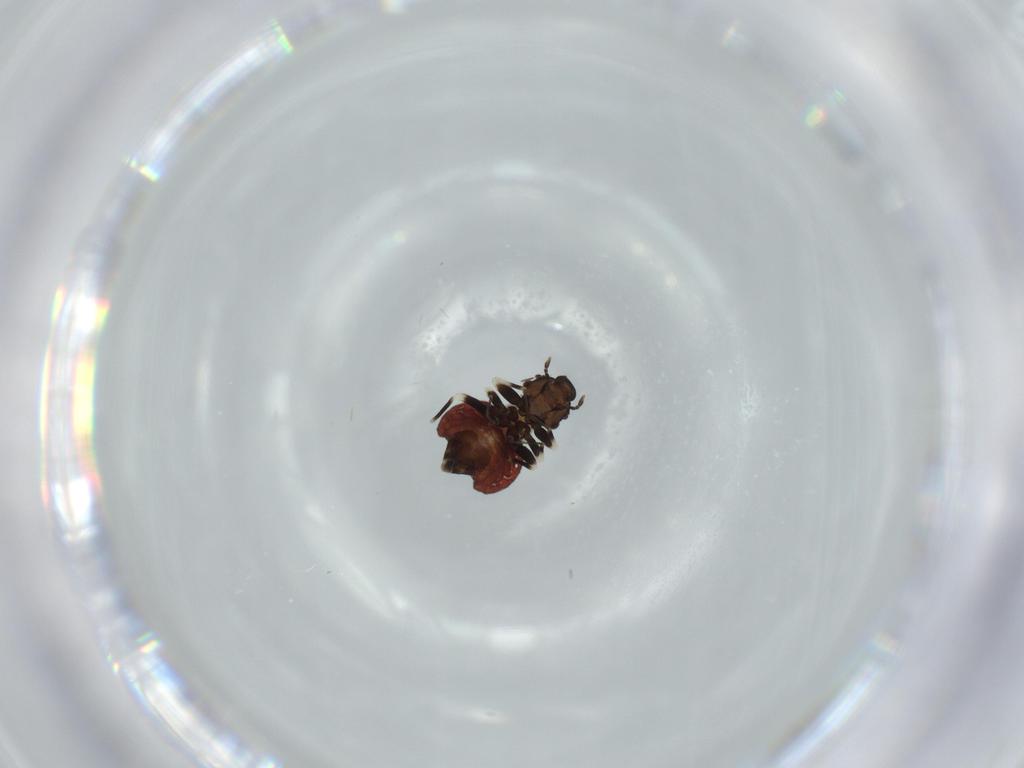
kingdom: Animalia
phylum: Arthropoda
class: Insecta
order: Psocodea
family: Lepidopsocidae
